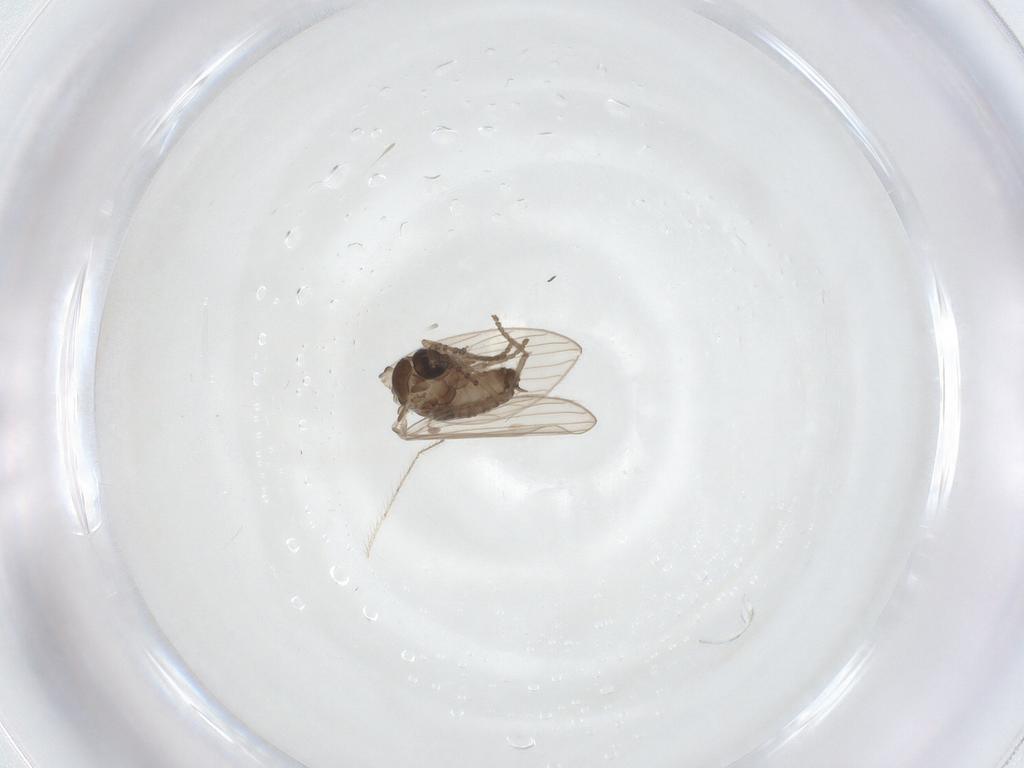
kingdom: Animalia
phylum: Arthropoda
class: Insecta
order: Diptera
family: Psychodidae
